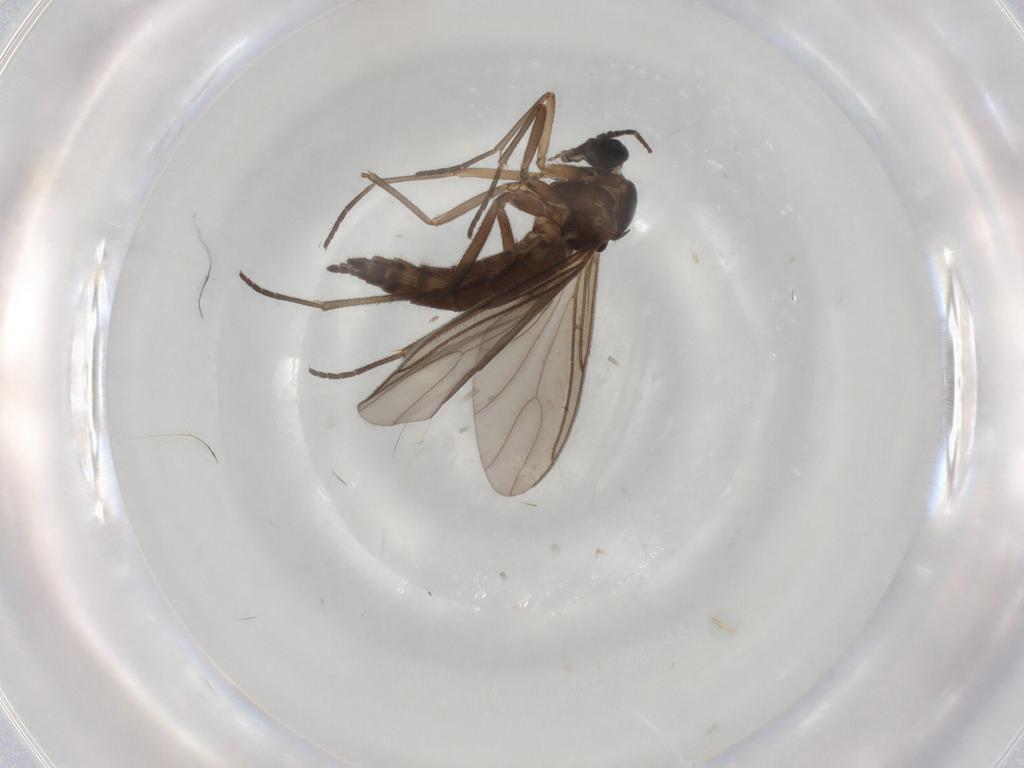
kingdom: Animalia
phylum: Arthropoda
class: Insecta
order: Diptera
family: Sciaridae
